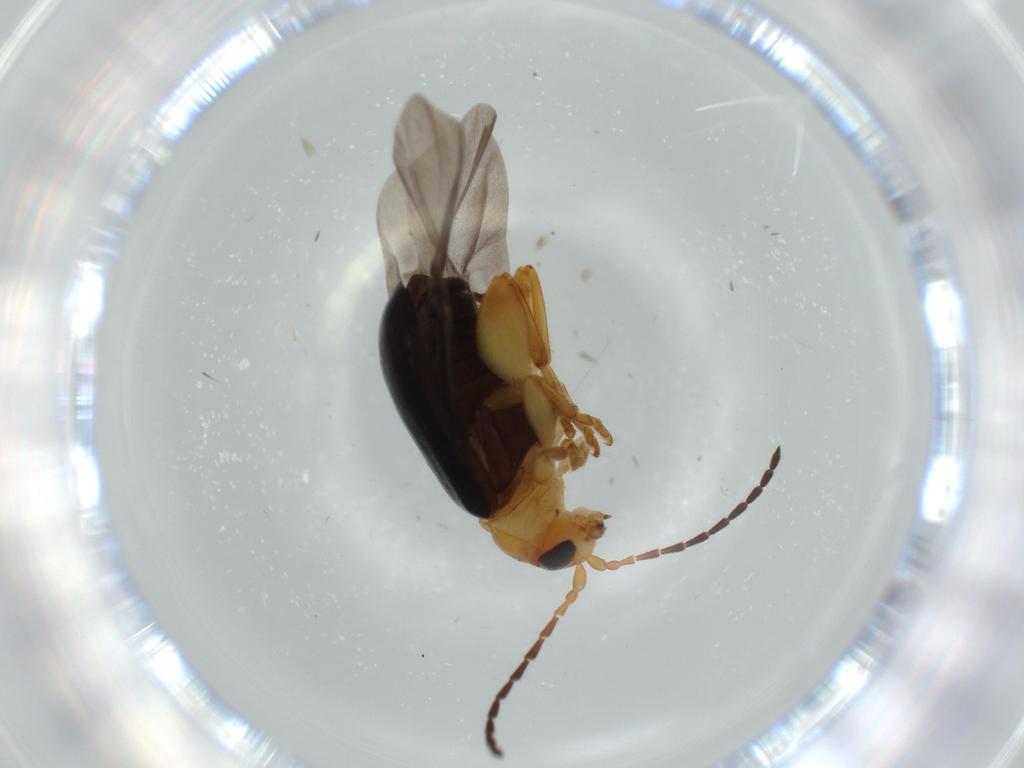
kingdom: Animalia
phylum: Arthropoda
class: Insecta
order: Coleoptera
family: Chrysomelidae
